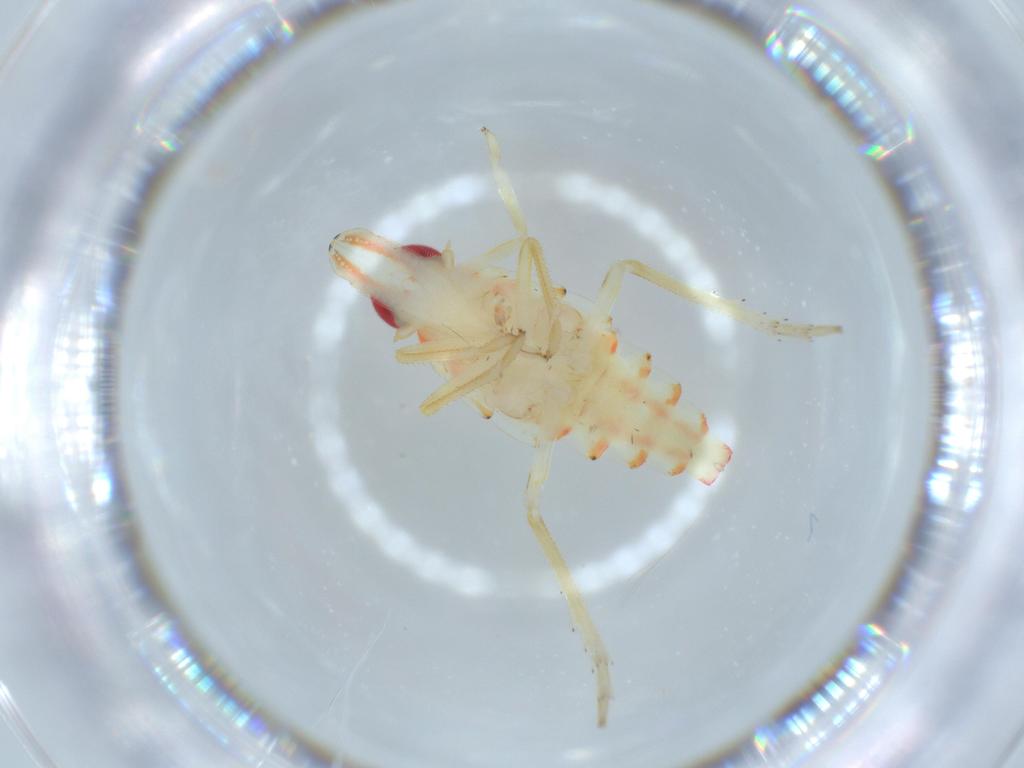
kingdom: Animalia
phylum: Arthropoda
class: Insecta
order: Hemiptera
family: Tropiduchidae
